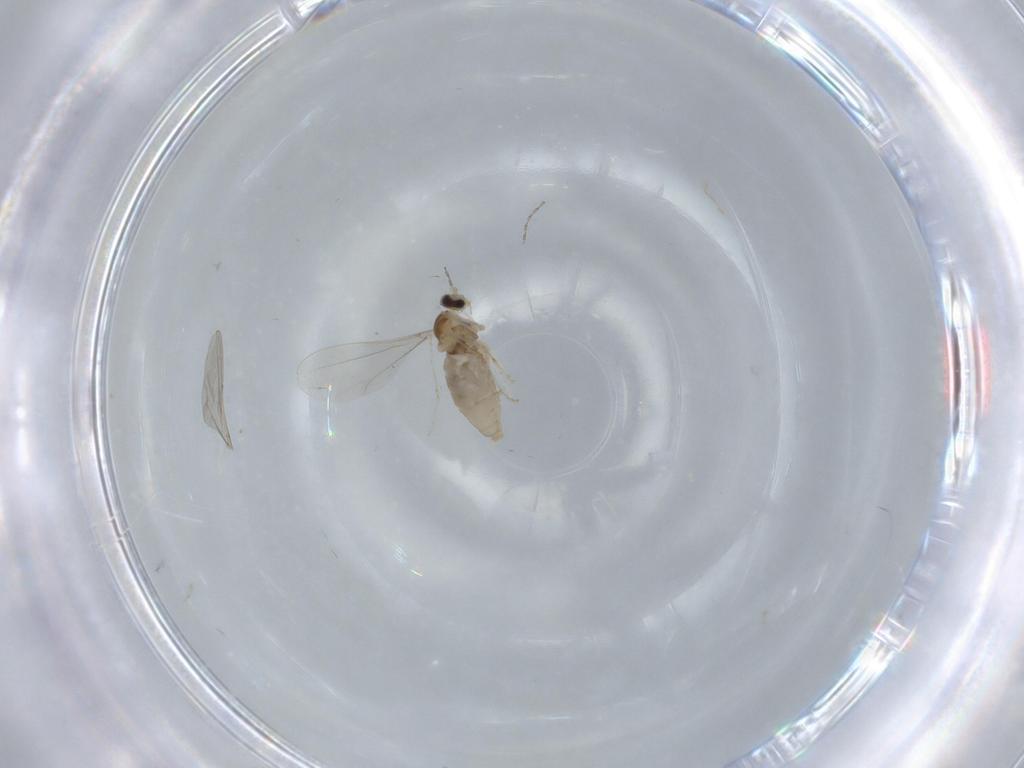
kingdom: Animalia
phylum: Arthropoda
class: Insecta
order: Diptera
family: Cecidomyiidae
